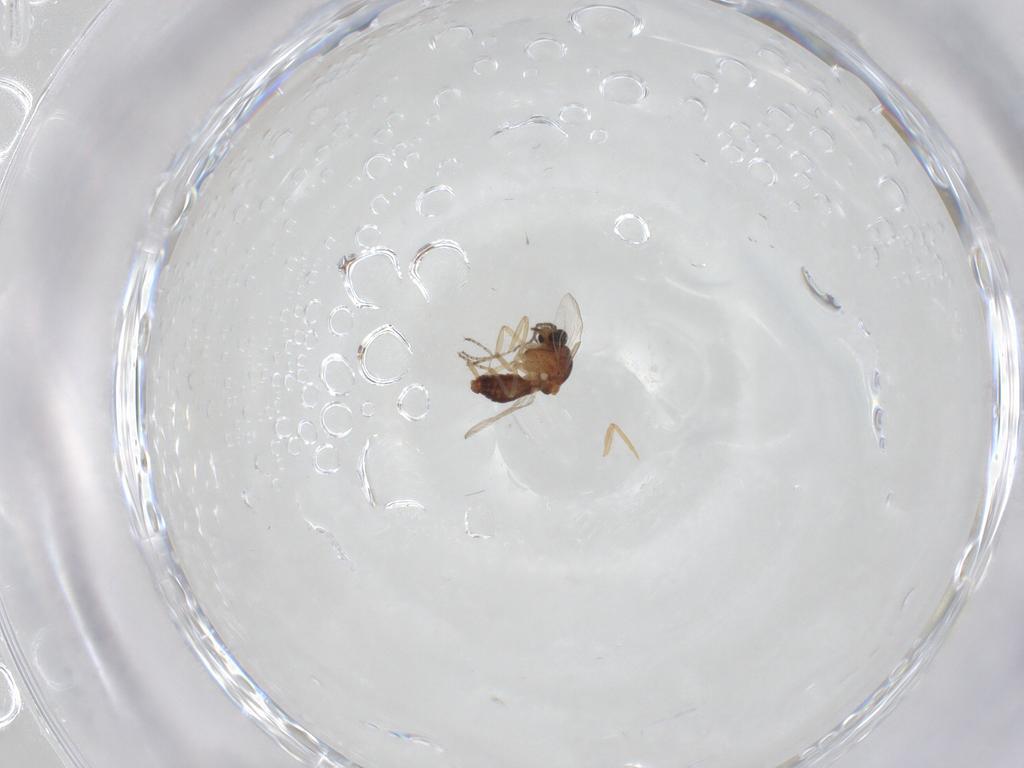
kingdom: Animalia
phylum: Arthropoda
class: Insecta
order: Diptera
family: Ceratopogonidae
